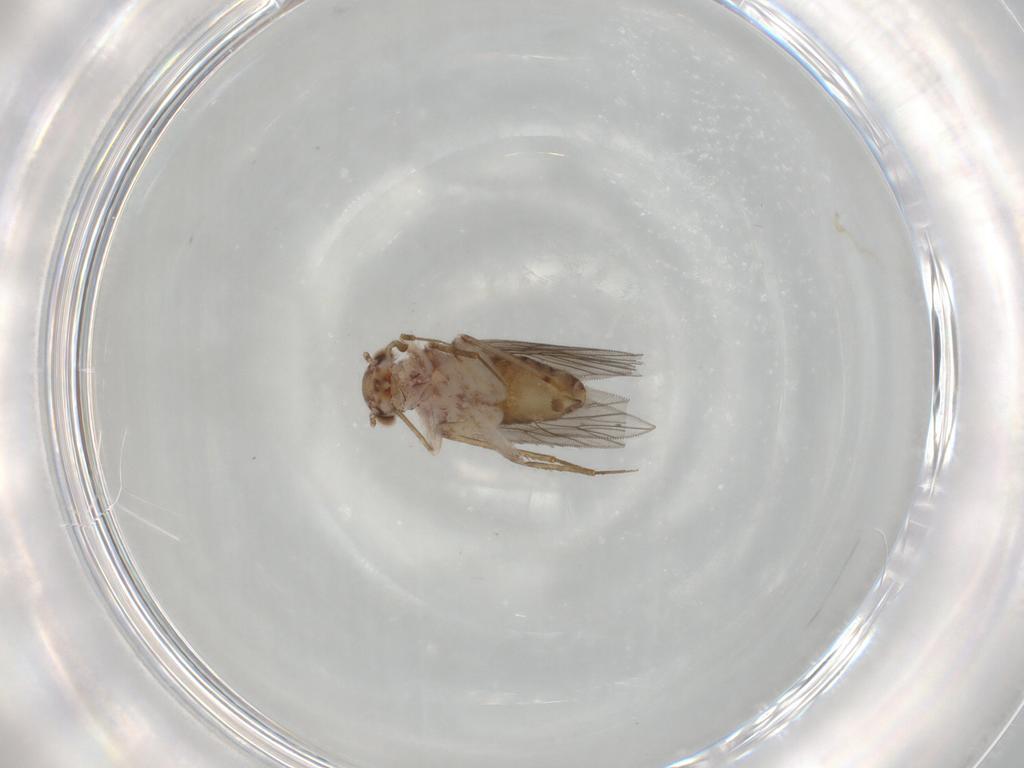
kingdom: Animalia
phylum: Arthropoda
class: Insecta
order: Psocodea
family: Lepidopsocidae
